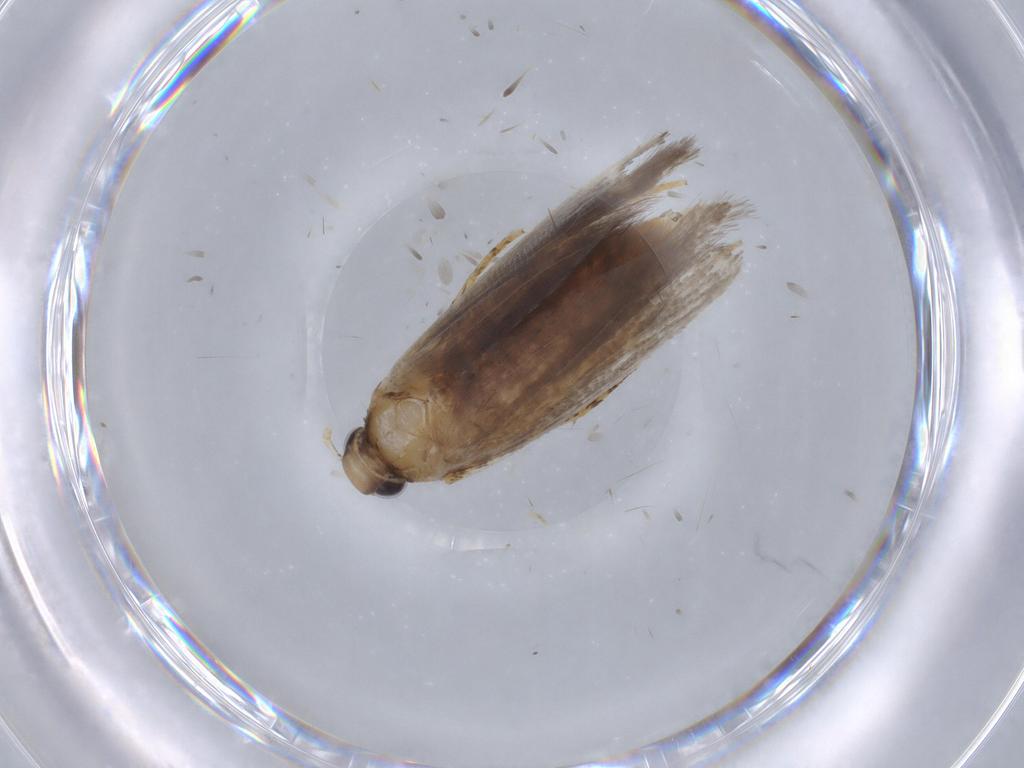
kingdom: Animalia
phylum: Arthropoda
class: Insecta
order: Lepidoptera
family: Gelechiidae
